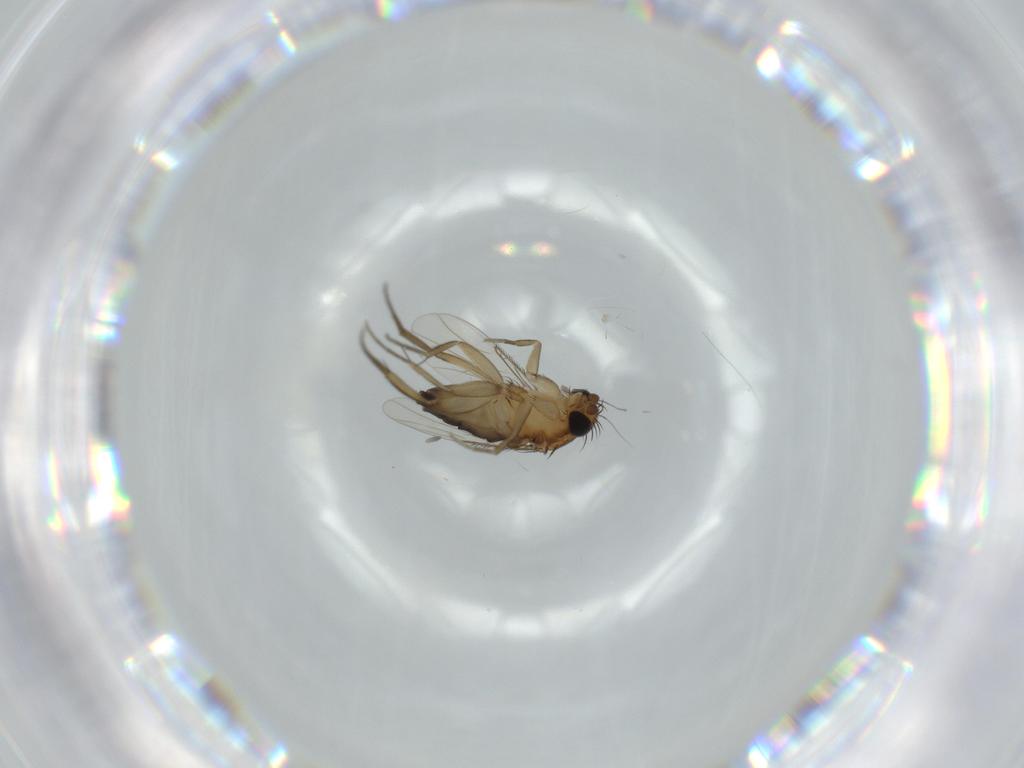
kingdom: Animalia
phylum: Arthropoda
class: Insecta
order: Diptera
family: Phoridae
